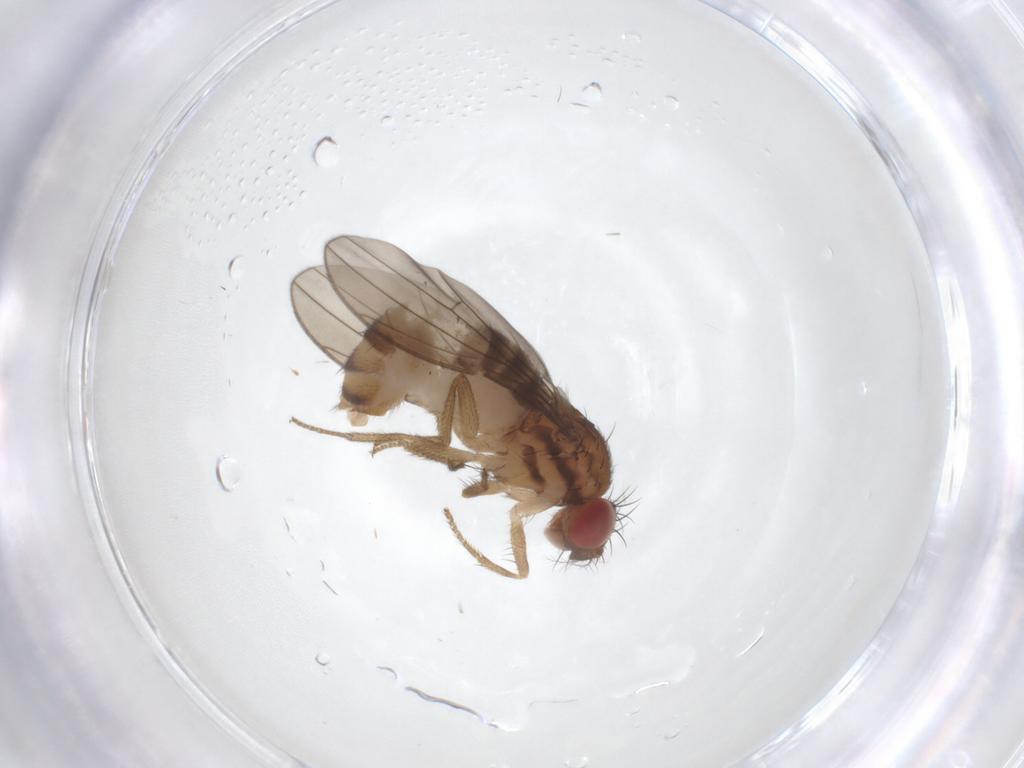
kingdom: Animalia
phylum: Arthropoda
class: Insecta
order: Diptera
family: Drosophilidae
